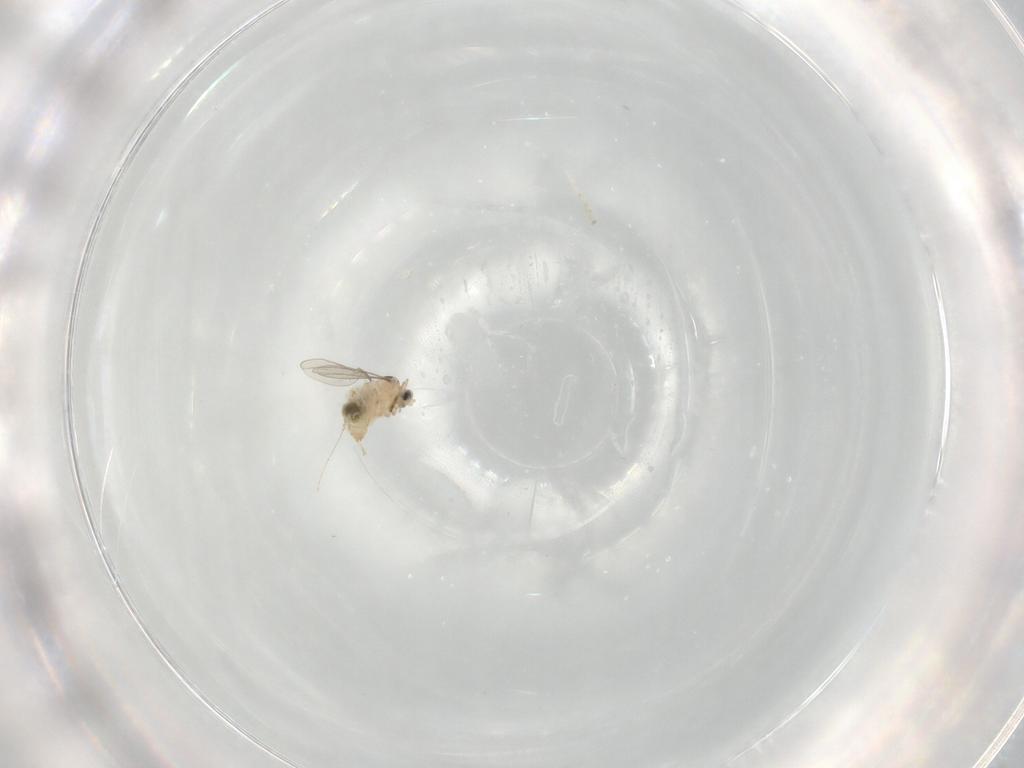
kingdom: Animalia
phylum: Arthropoda
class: Insecta
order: Diptera
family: Cecidomyiidae
